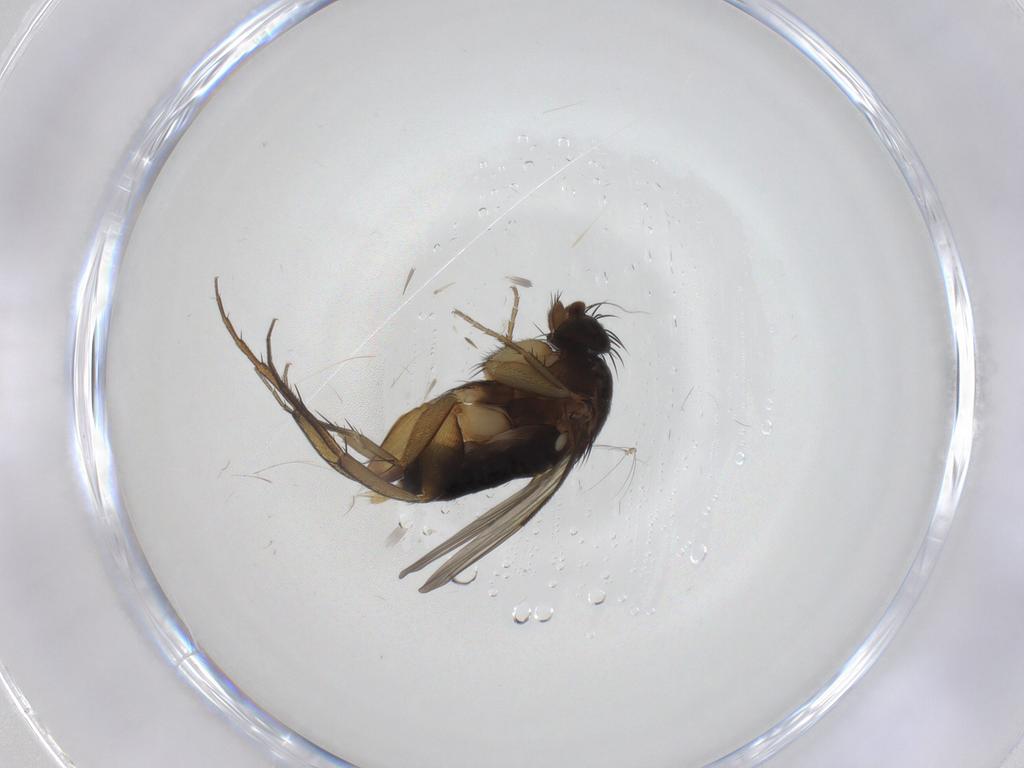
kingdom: Animalia
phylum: Arthropoda
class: Insecta
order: Diptera
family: Phoridae
